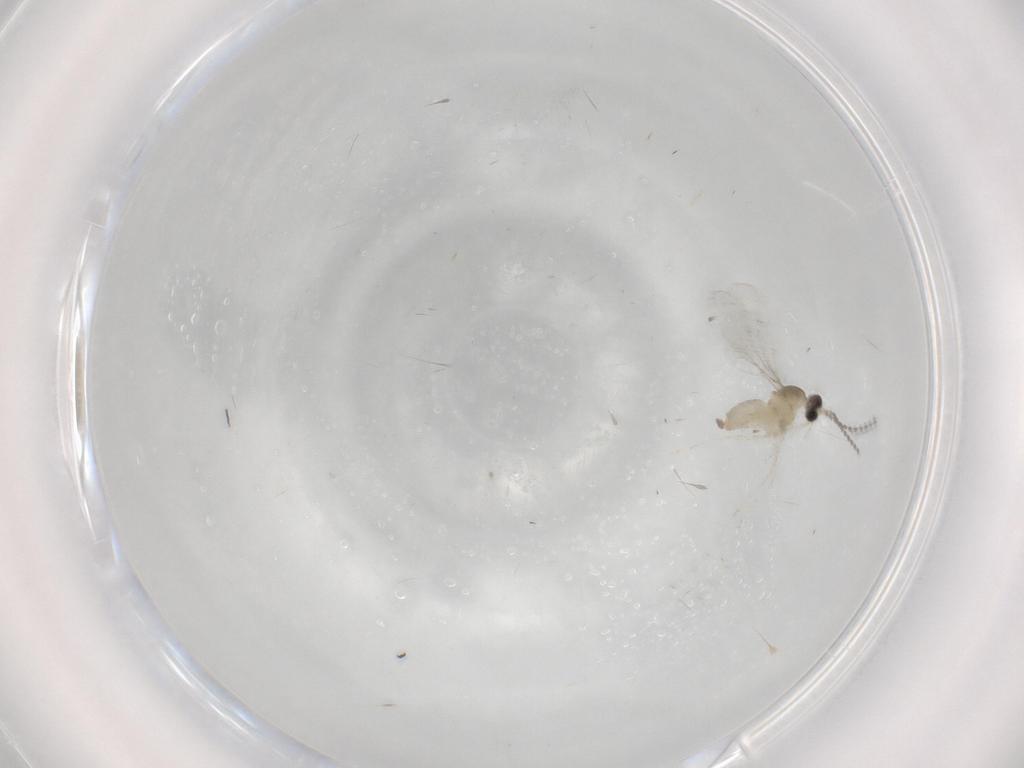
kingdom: Animalia
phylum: Arthropoda
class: Insecta
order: Diptera
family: Cecidomyiidae
